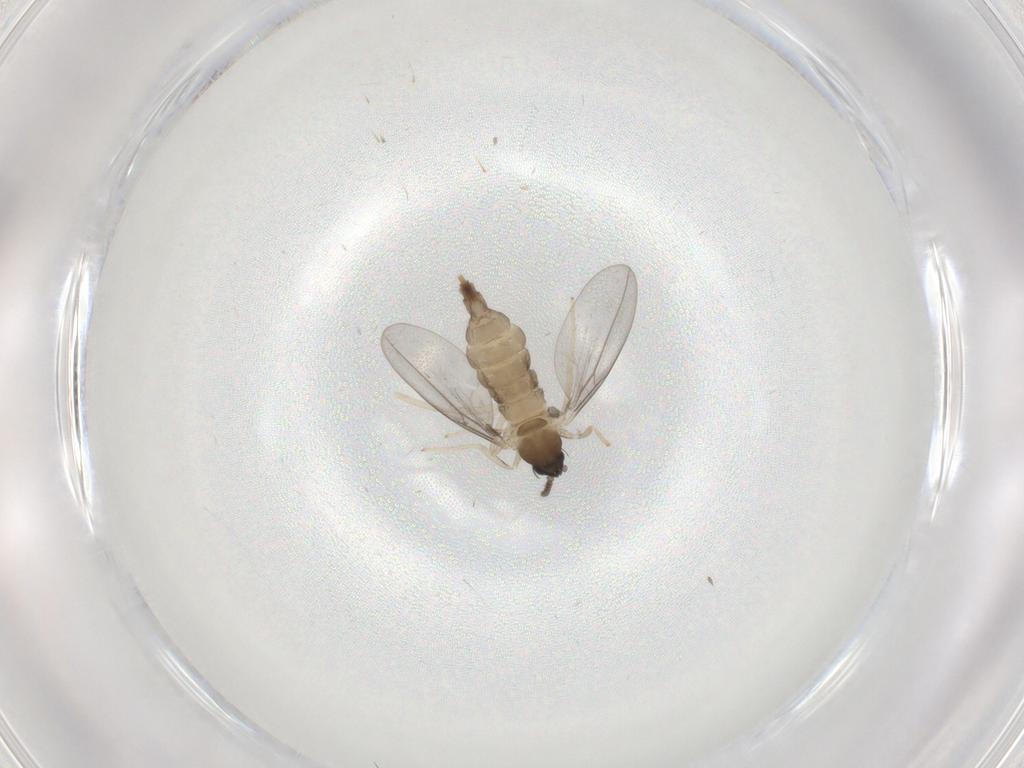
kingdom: Animalia
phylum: Arthropoda
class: Insecta
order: Diptera
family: Cecidomyiidae
